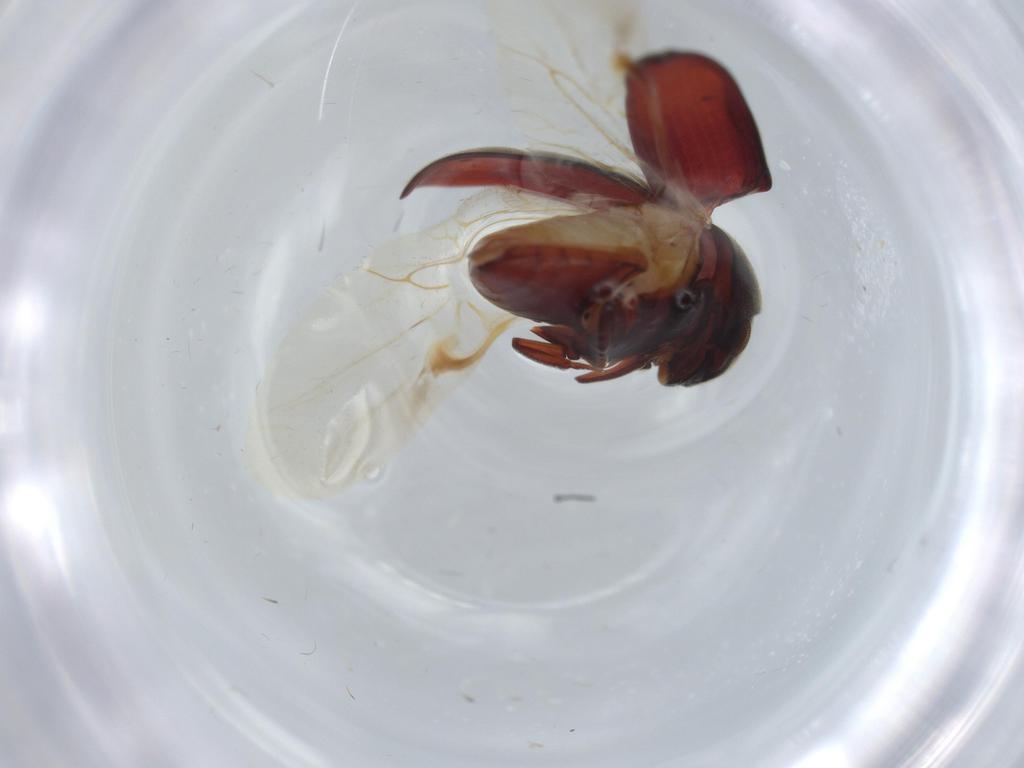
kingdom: Animalia
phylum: Arthropoda
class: Insecta
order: Coleoptera
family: Ptinidae
